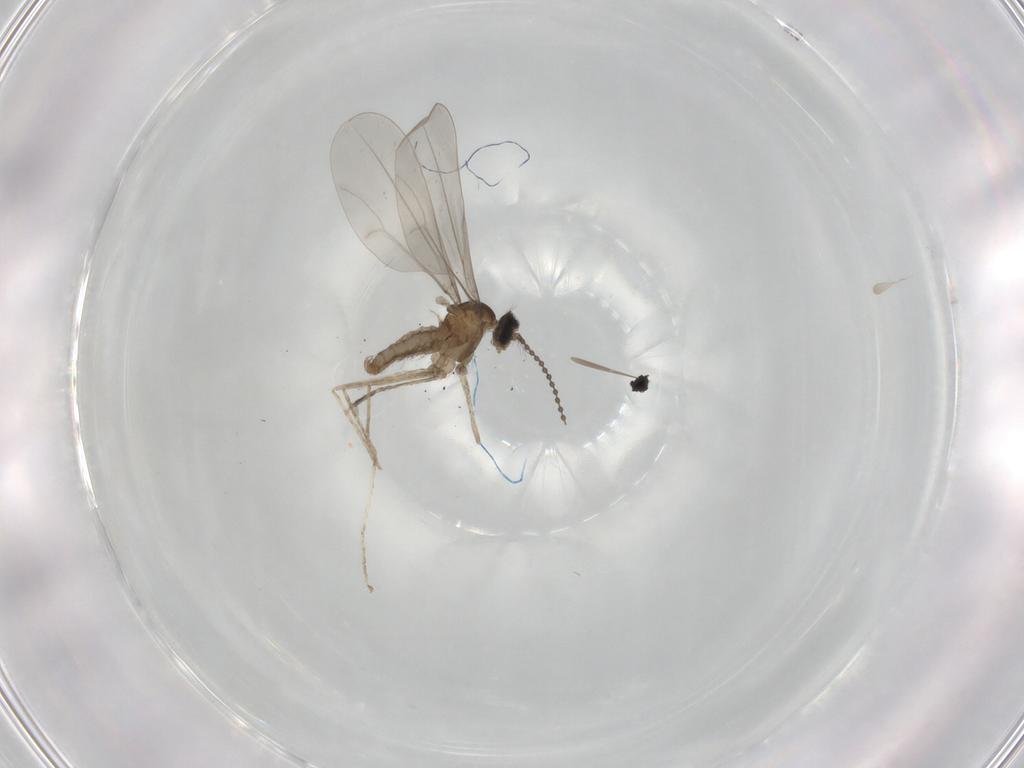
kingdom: Animalia
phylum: Arthropoda
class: Insecta
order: Diptera
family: Cecidomyiidae
